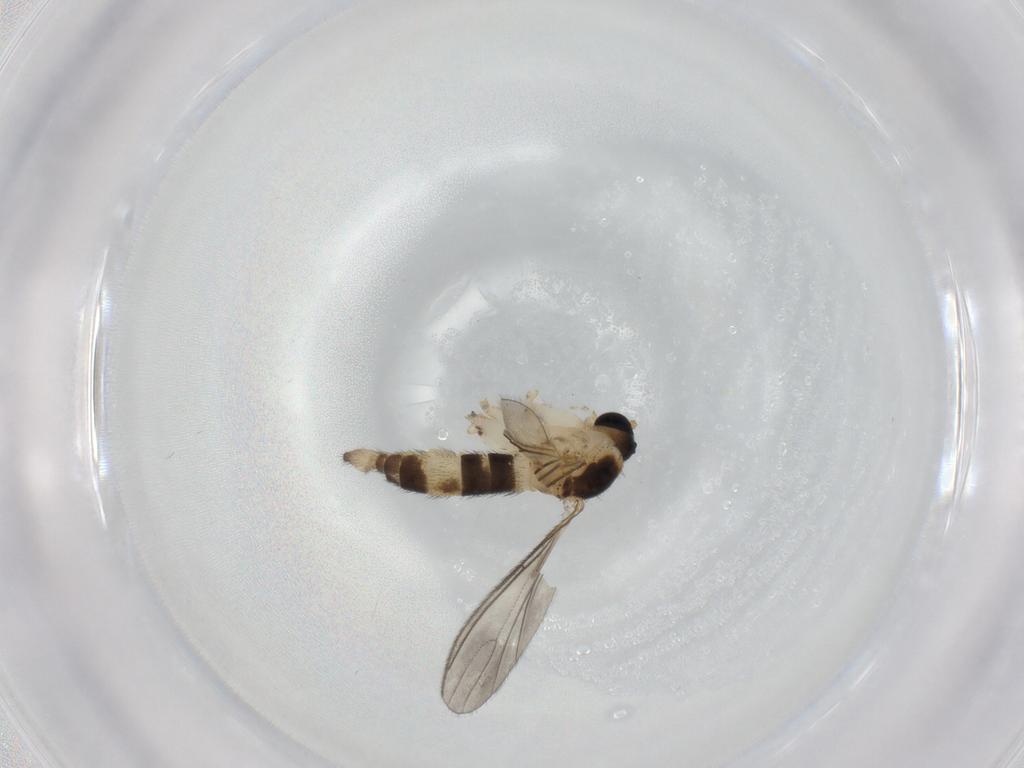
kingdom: Animalia
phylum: Arthropoda
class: Insecta
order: Diptera
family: Sciaridae
